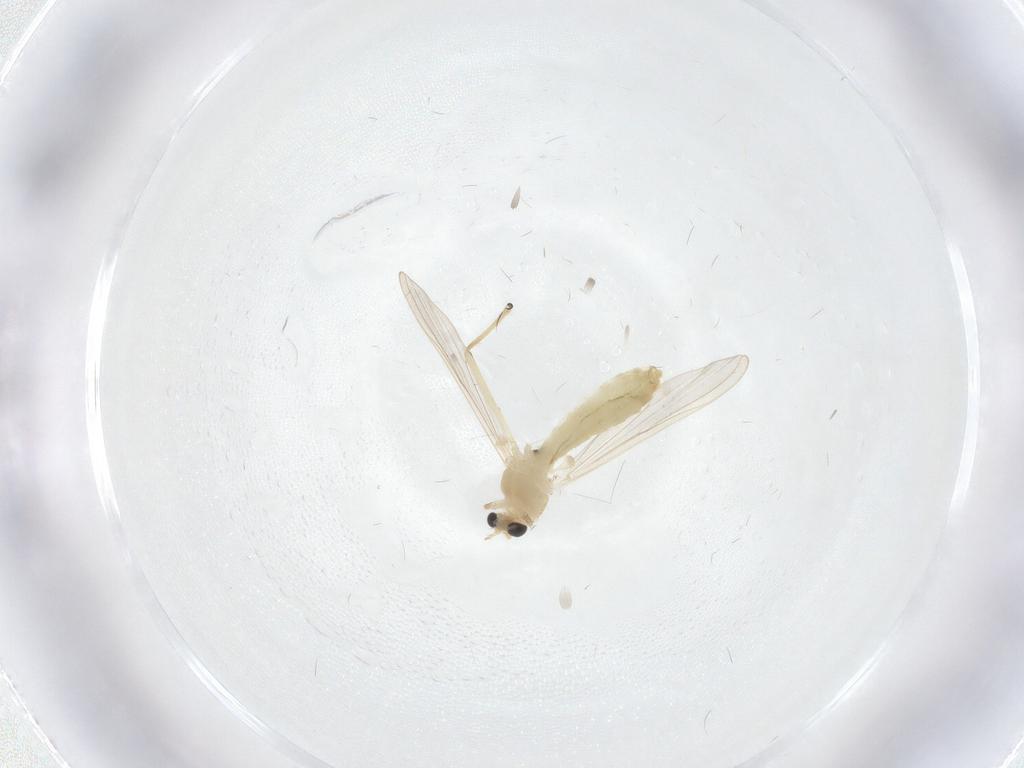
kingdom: Animalia
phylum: Arthropoda
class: Insecta
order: Diptera
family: Chironomidae
